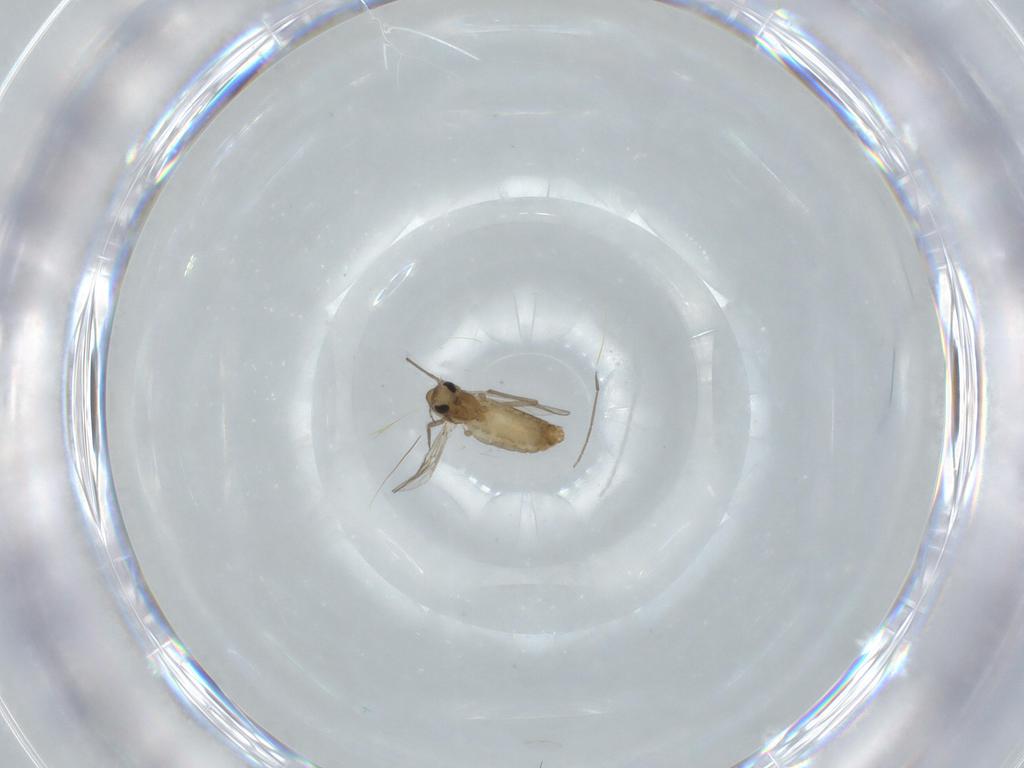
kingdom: Animalia
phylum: Arthropoda
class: Insecta
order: Diptera
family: Chironomidae
